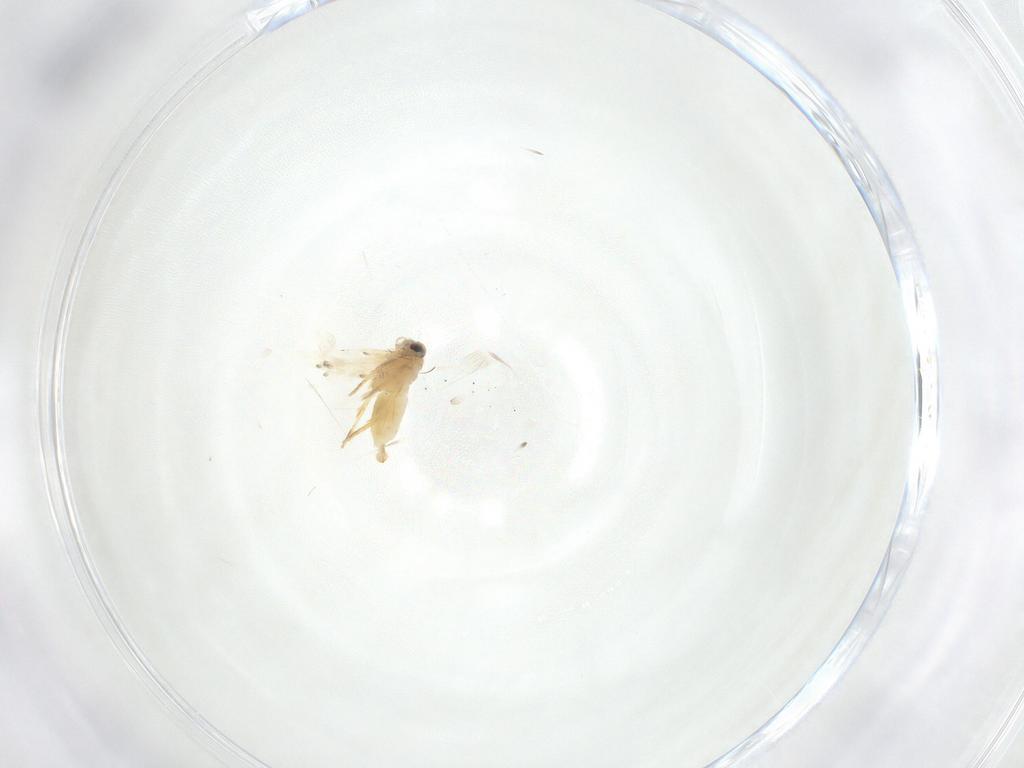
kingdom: Animalia
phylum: Arthropoda
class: Insecta
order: Lepidoptera
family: Crambidae
